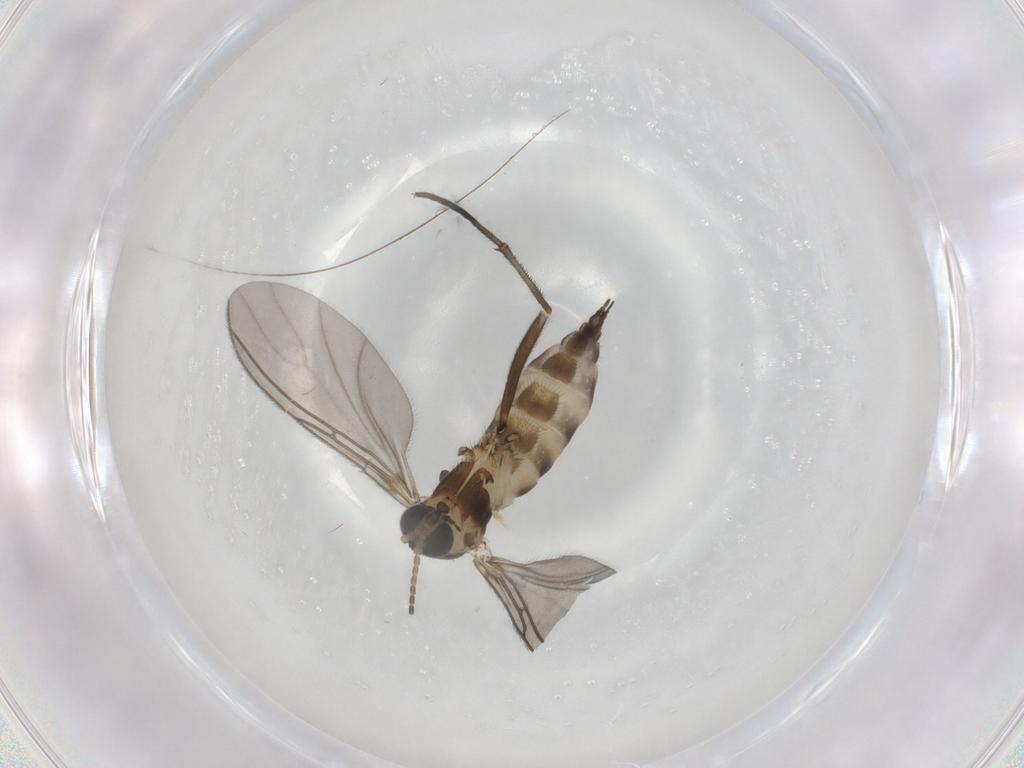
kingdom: Animalia
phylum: Arthropoda
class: Insecta
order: Diptera
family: Sciaridae
